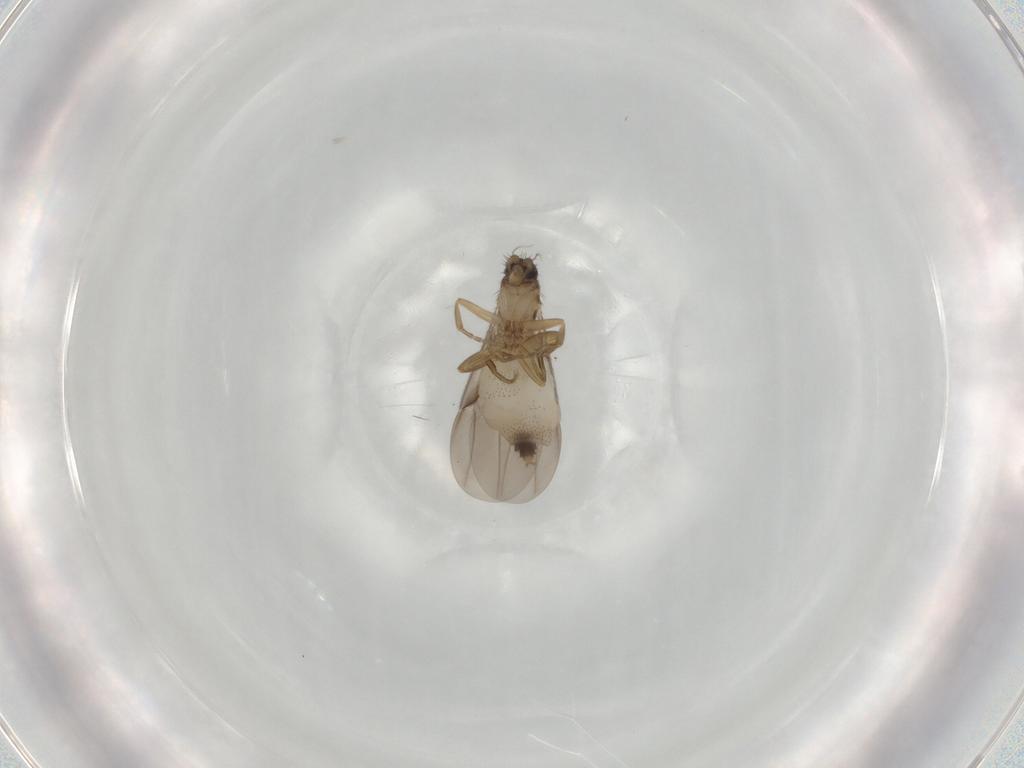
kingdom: Animalia
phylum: Arthropoda
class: Insecta
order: Diptera
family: Phoridae
